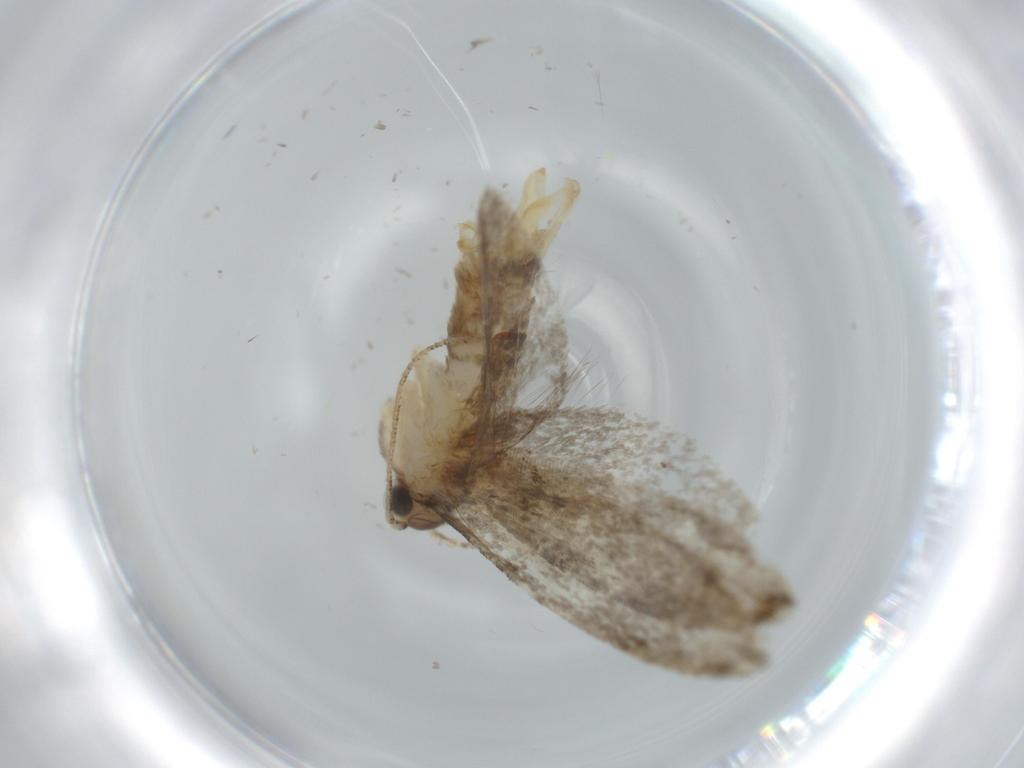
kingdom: Animalia
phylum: Arthropoda
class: Insecta
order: Lepidoptera
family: Tineidae
